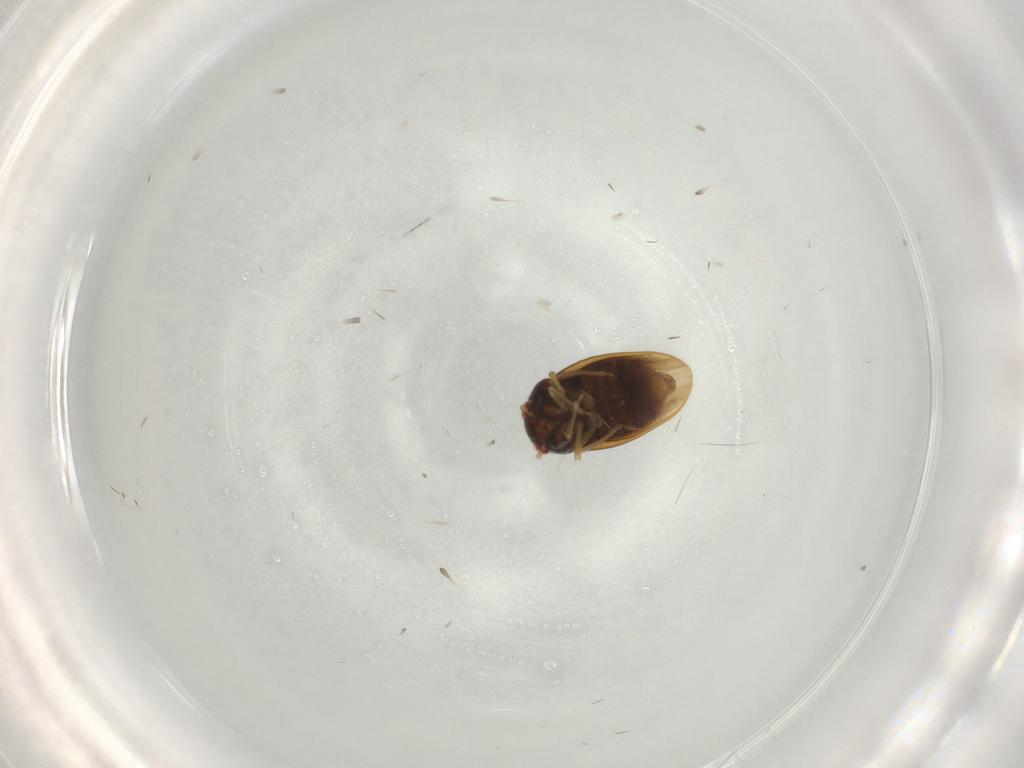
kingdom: Animalia
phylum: Arthropoda
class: Insecta
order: Hemiptera
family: Schizopteridae
